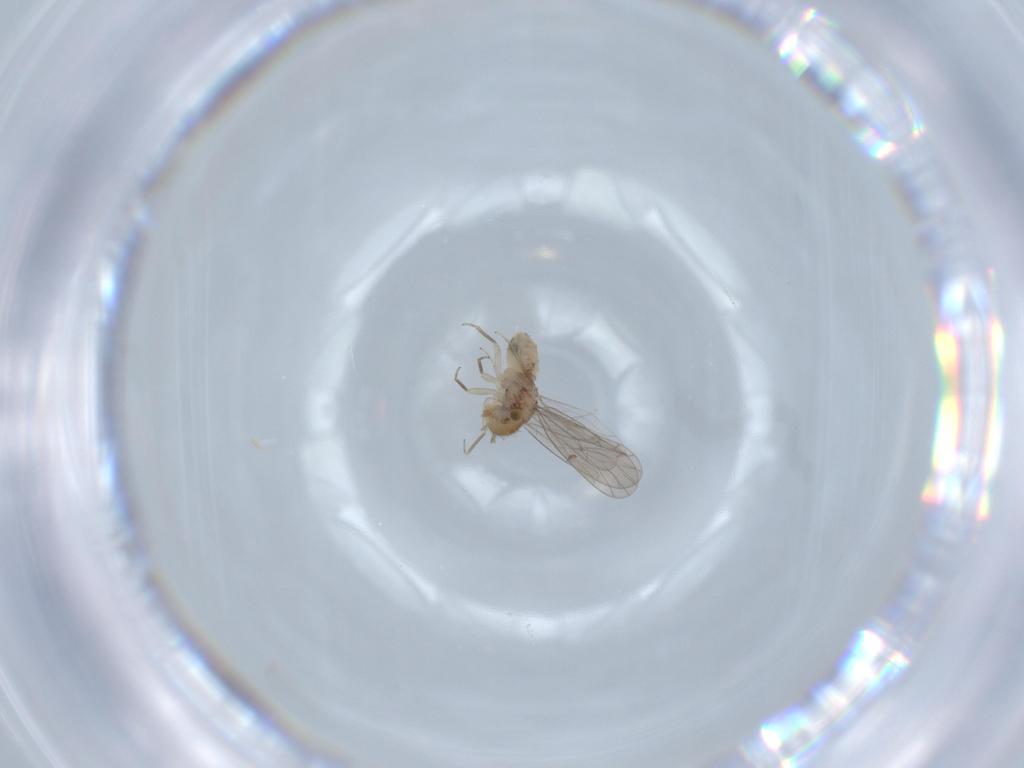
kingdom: Animalia
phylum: Arthropoda
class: Insecta
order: Psocodea
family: Ectopsocidae
